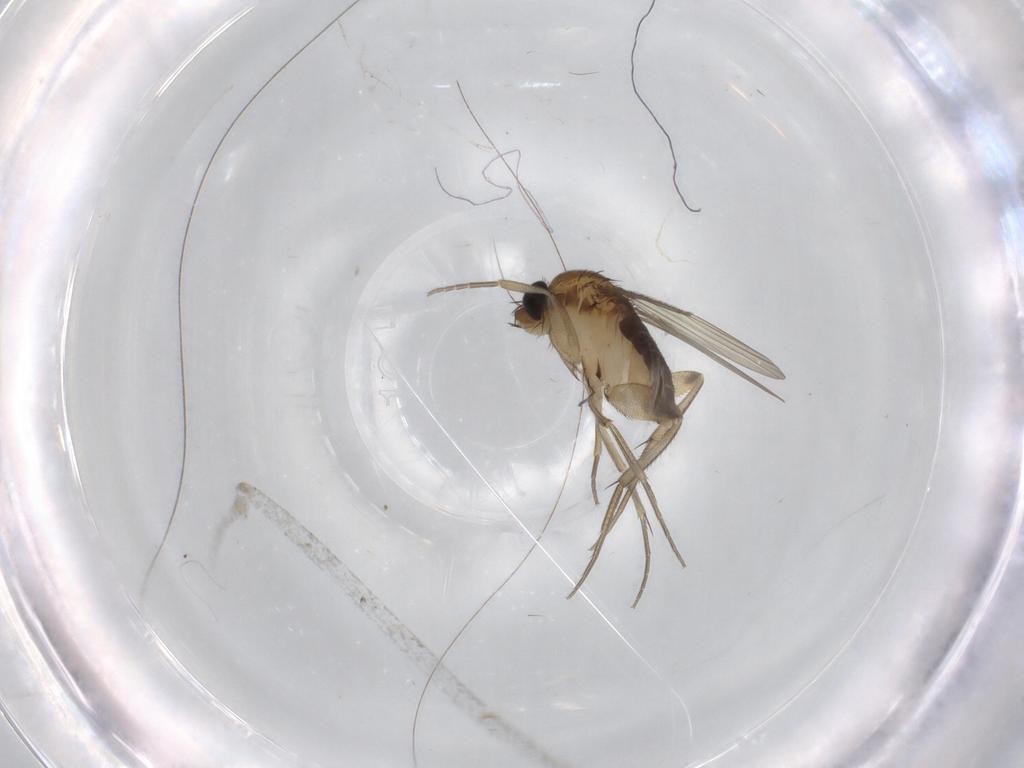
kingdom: Animalia
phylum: Arthropoda
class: Insecta
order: Diptera
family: Phoridae
